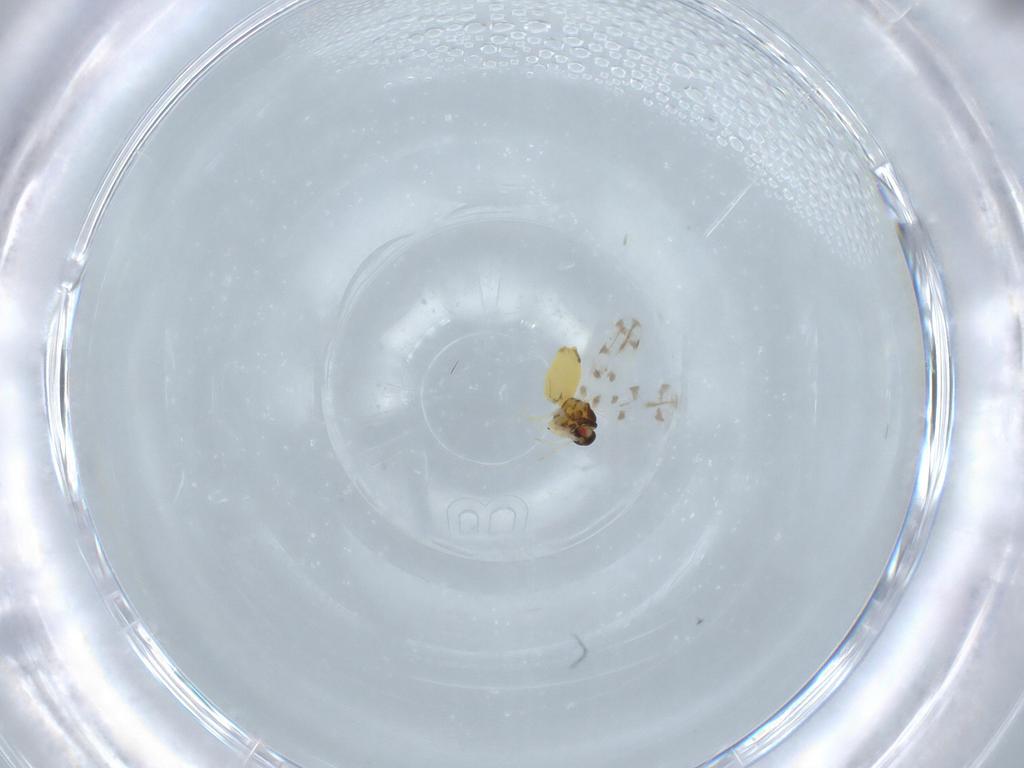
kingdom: Animalia
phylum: Arthropoda
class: Insecta
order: Hemiptera
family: Aleyrodidae
